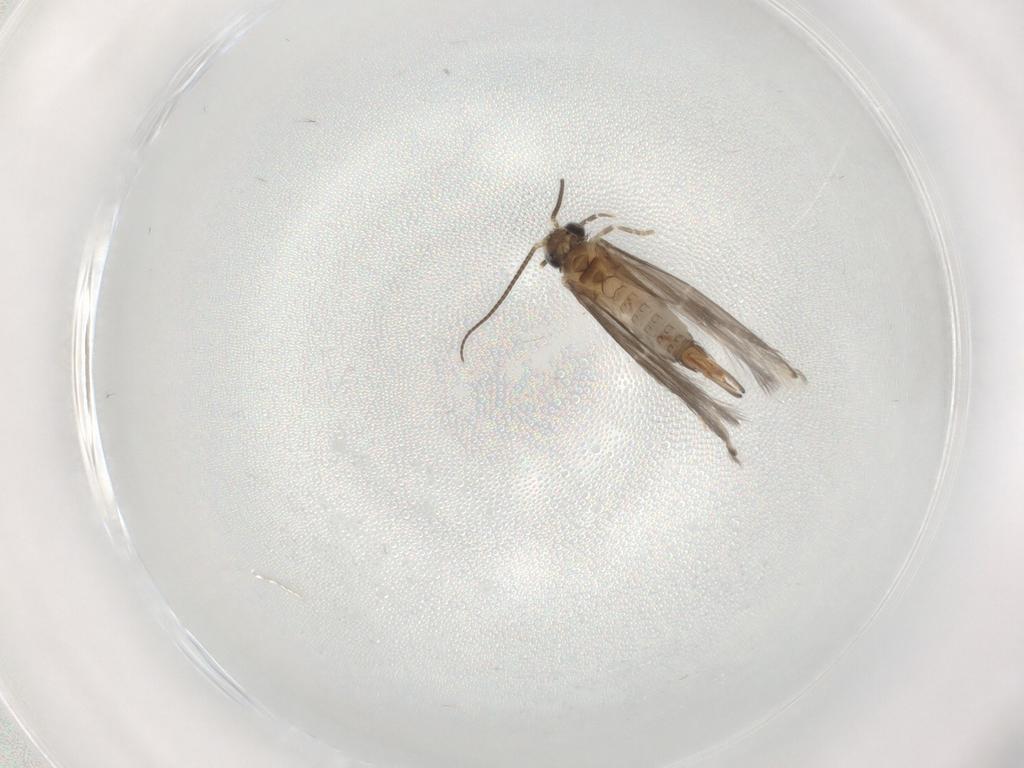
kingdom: Animalia
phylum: Arthropoda
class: Insecta
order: Trichoptera
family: Hydroptilidae
